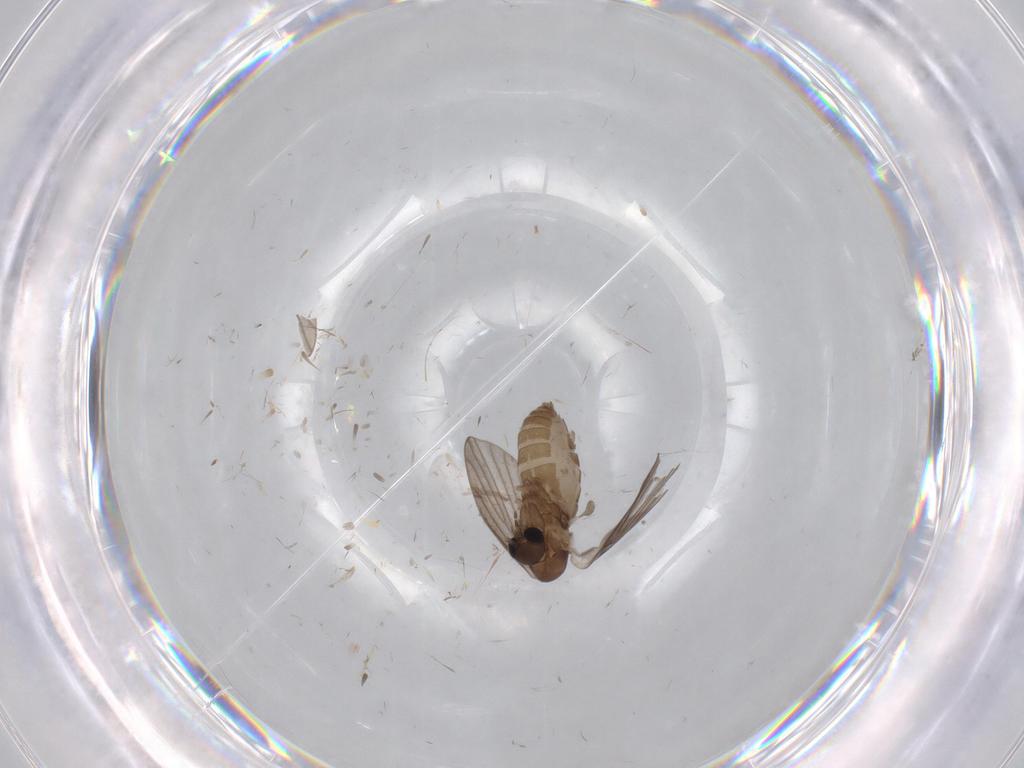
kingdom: Animalia
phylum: Arthropoda
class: Insecta
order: Diptera
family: Psychodidae
